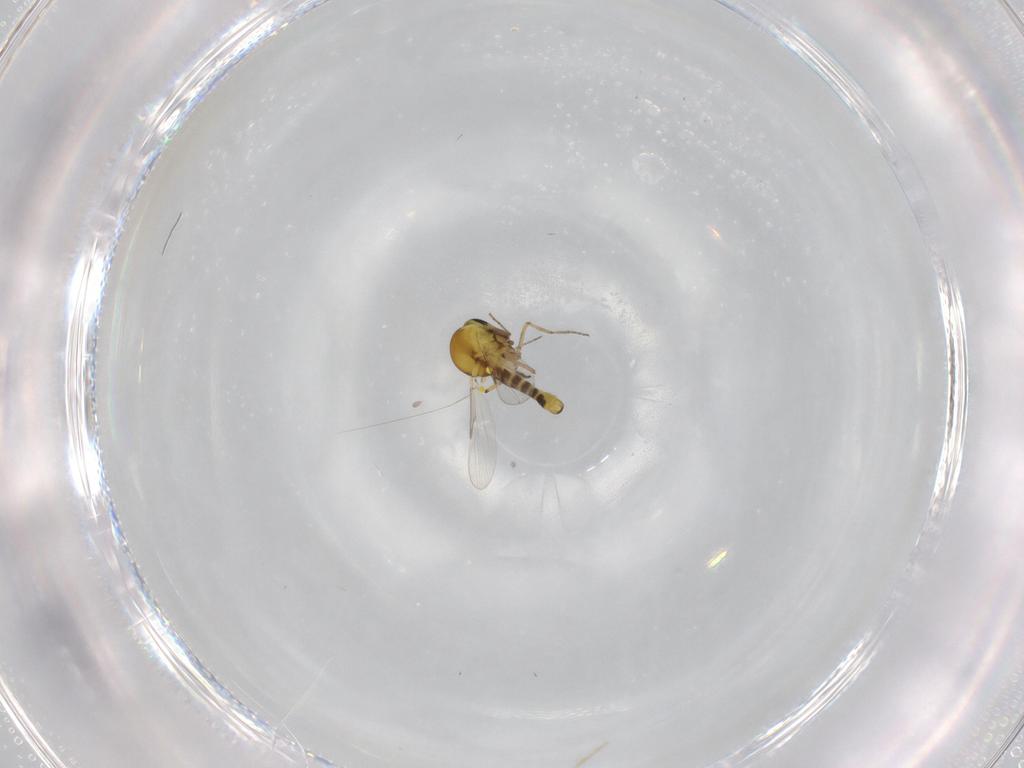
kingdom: Animalia
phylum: Arthropoda
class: Insecta
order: Diptera
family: Ceratopogonidae
